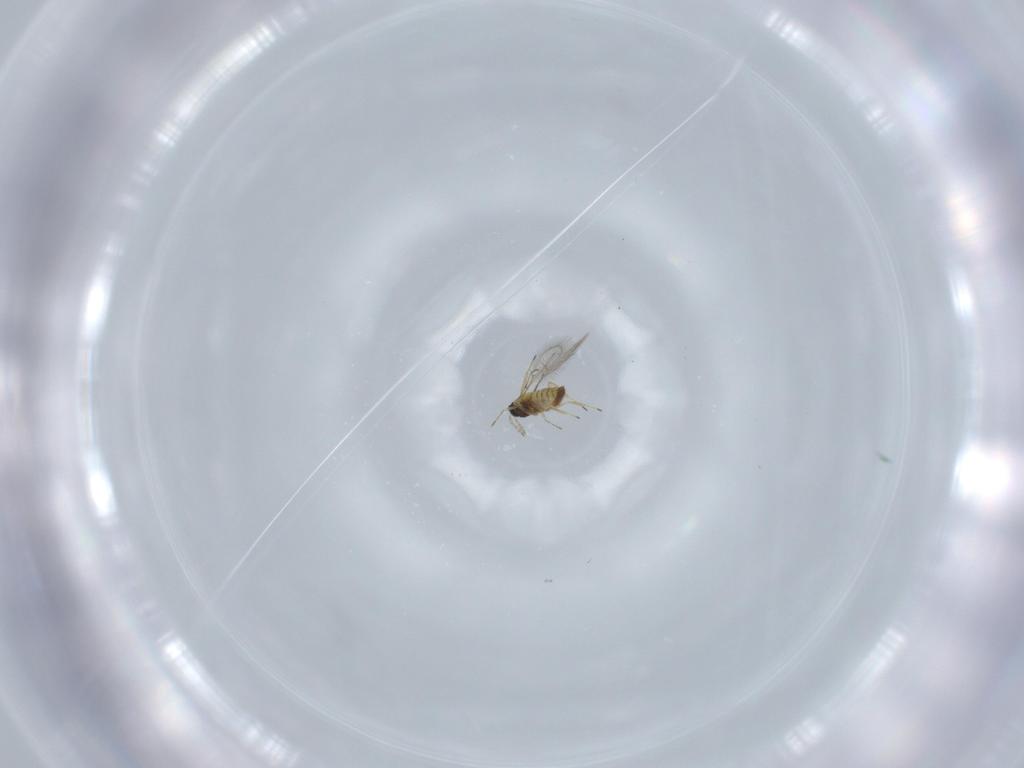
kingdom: Animalia
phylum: Arthropoda
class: Insecta
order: Hymenoptera
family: Trichogrammatidae
